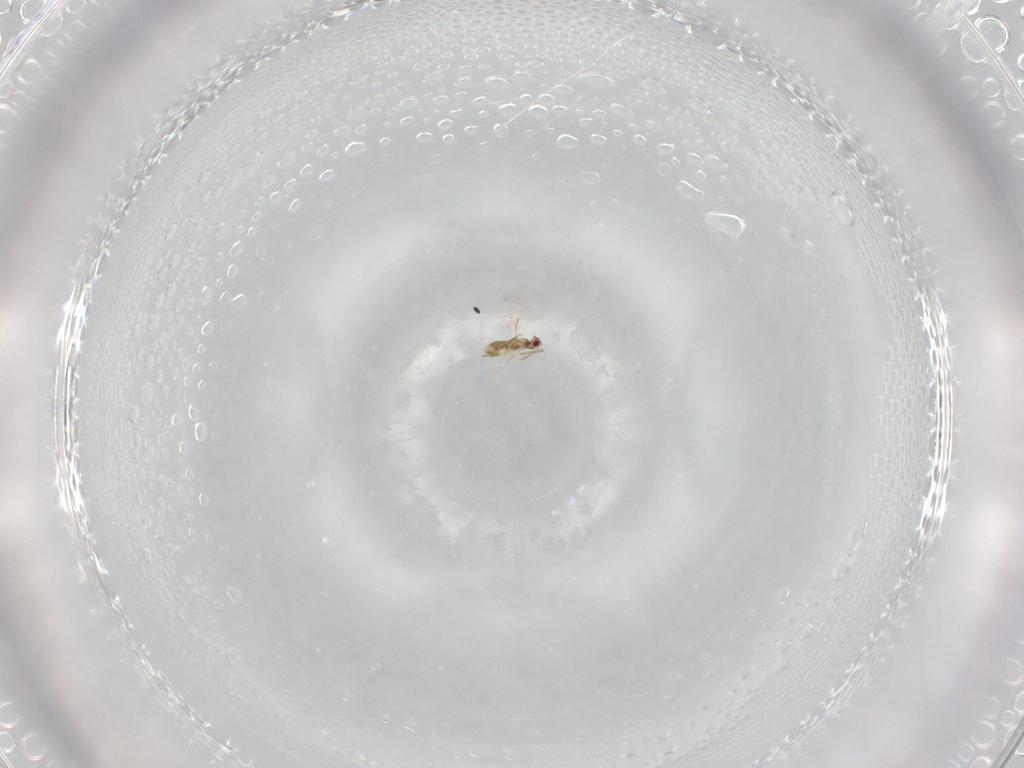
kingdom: Animalia
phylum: Arthropoda
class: Insecta
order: Hymenoptera
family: Aphelinidae
